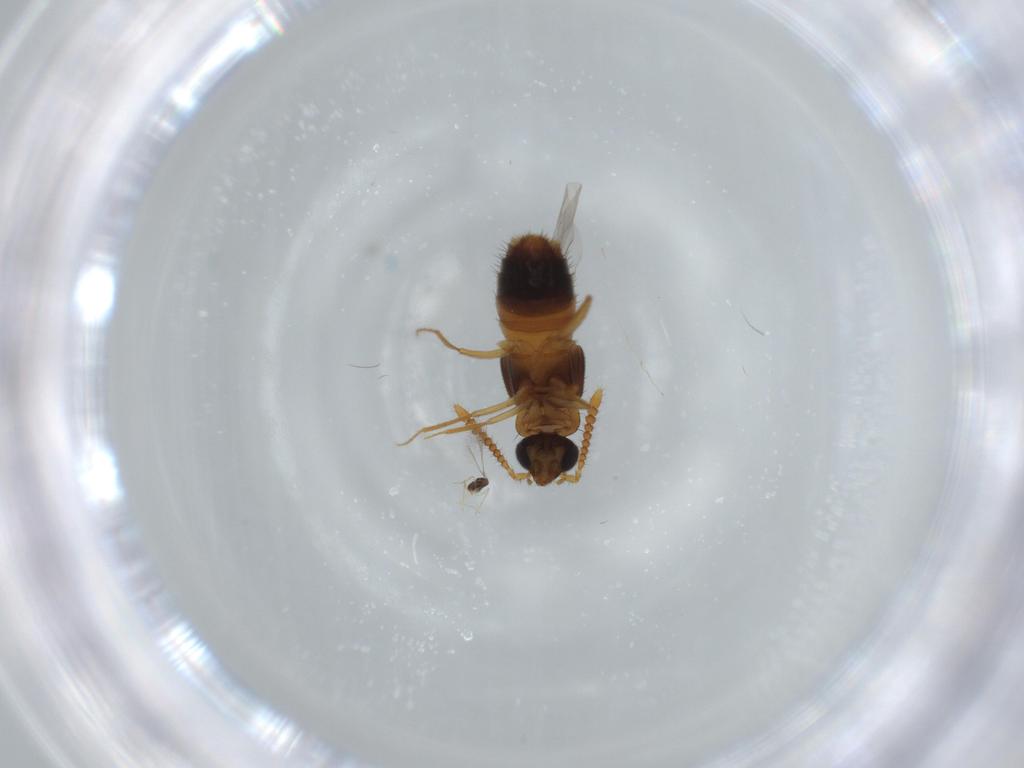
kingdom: Animalia
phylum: Arthropoda
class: Insecta
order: Coleoptera
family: Staphylinidae
